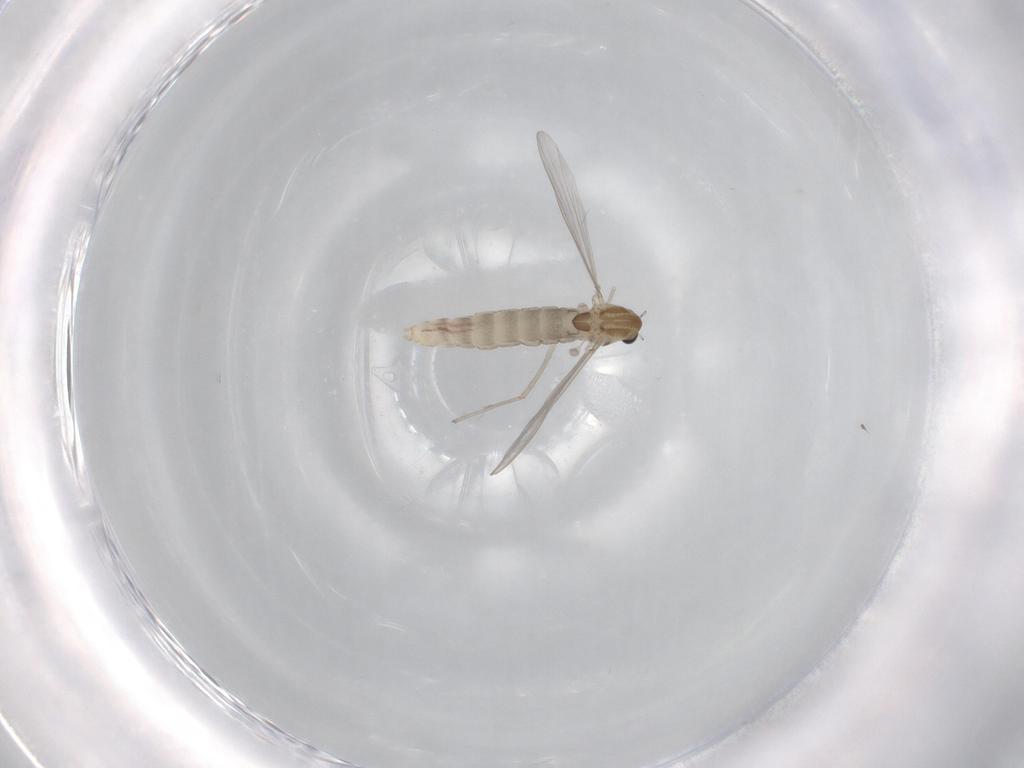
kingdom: Animalia
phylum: Arthropoda
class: Insecta
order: Diptera
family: Chironomidae
